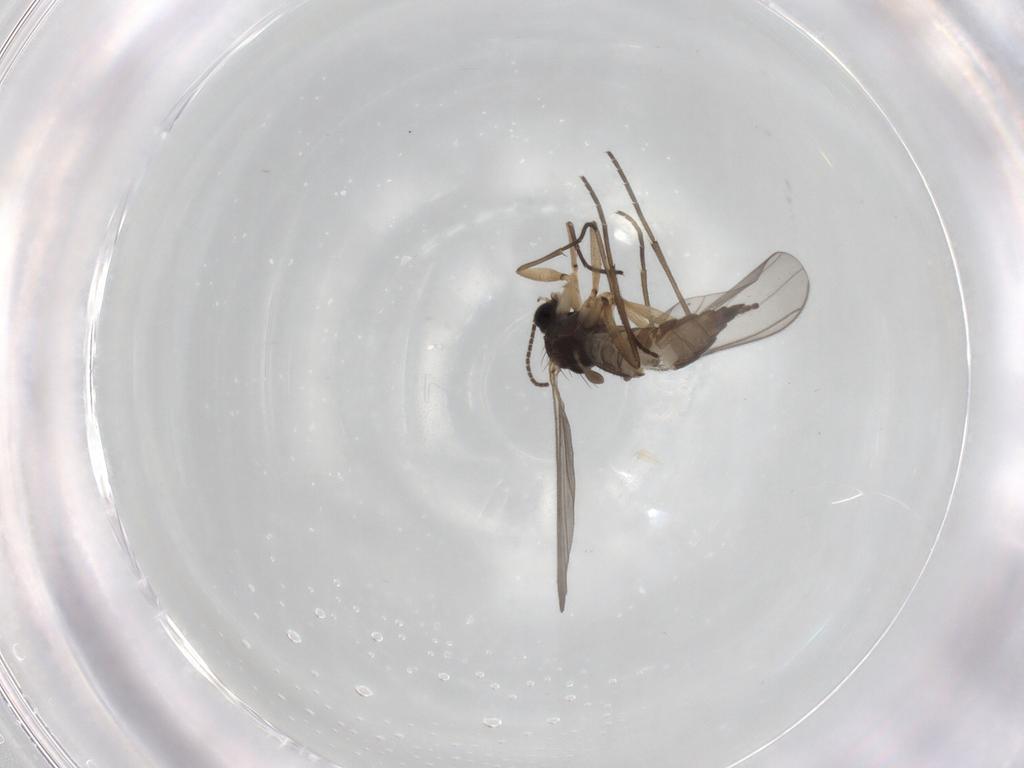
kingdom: Animalia
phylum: Arthropoda
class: Insecta
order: Diptera
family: Sciaridae
